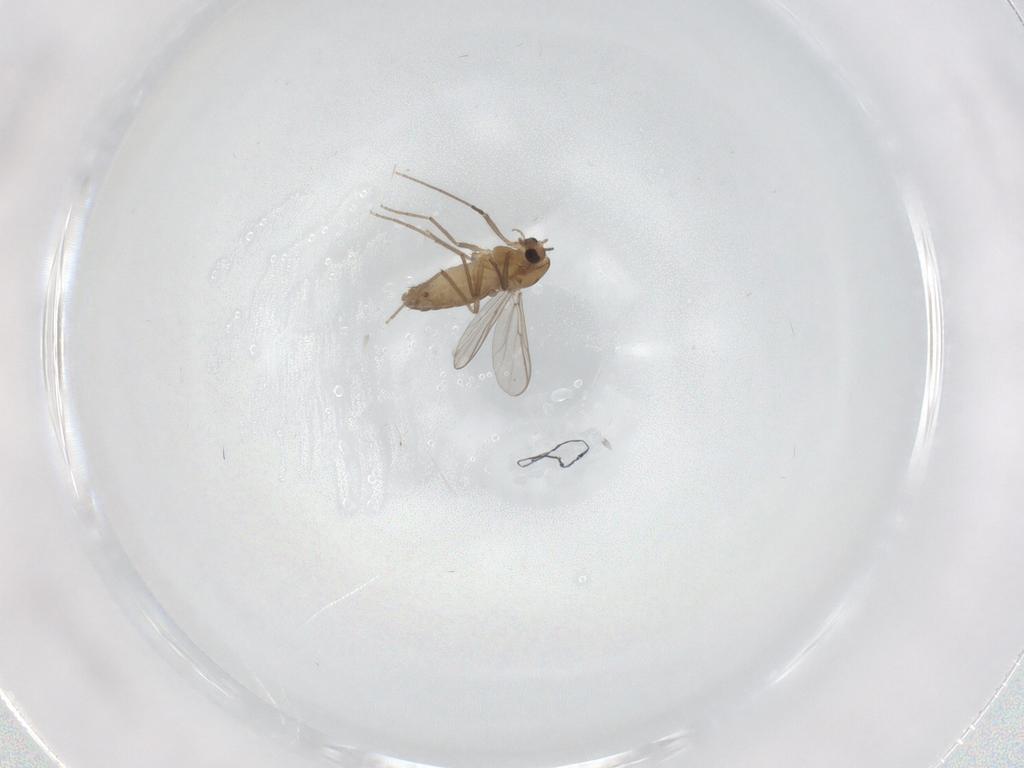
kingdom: Animalia
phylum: Arthropoda
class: Insecta
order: Diptera
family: Chironomidae
